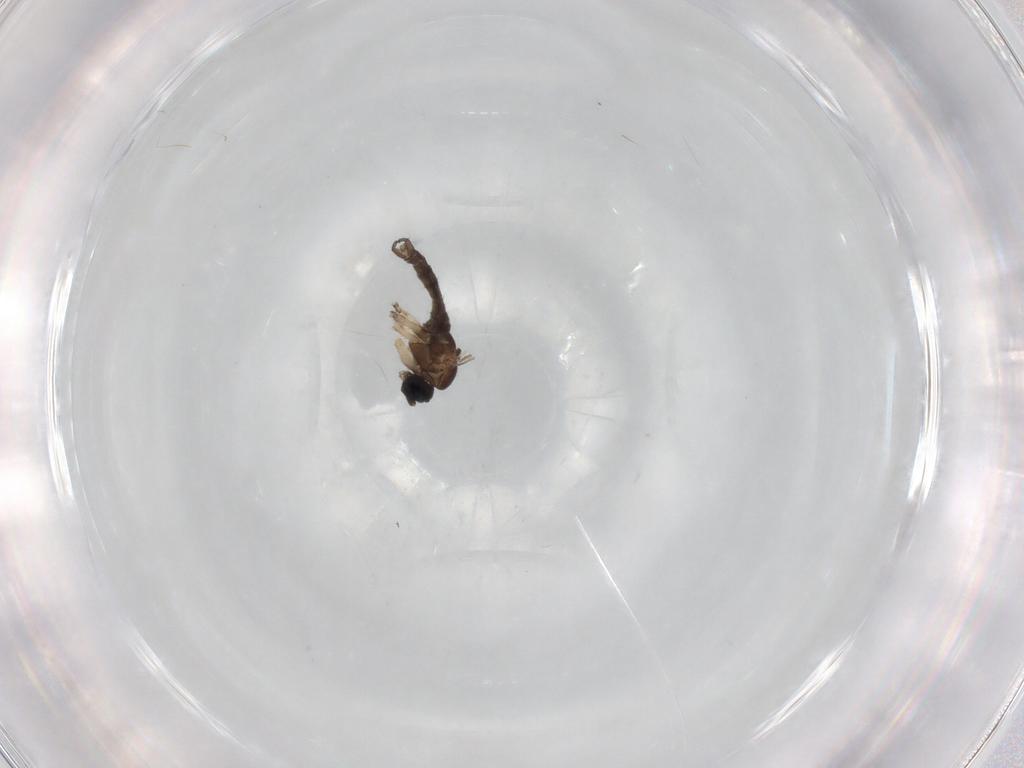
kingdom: Animalia
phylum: Arthropoda
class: Insecta
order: Diptera
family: Sciaridae
